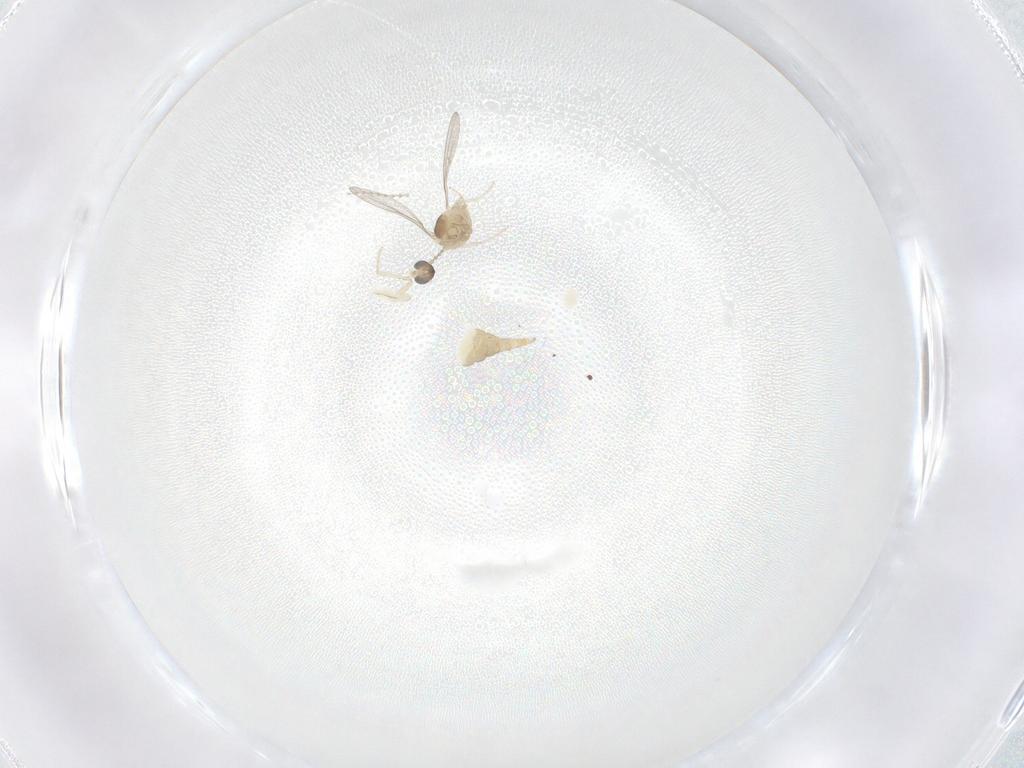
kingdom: Animalia
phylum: Arthropoda
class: Insecta
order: Diptera
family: Cecidomyiidae
